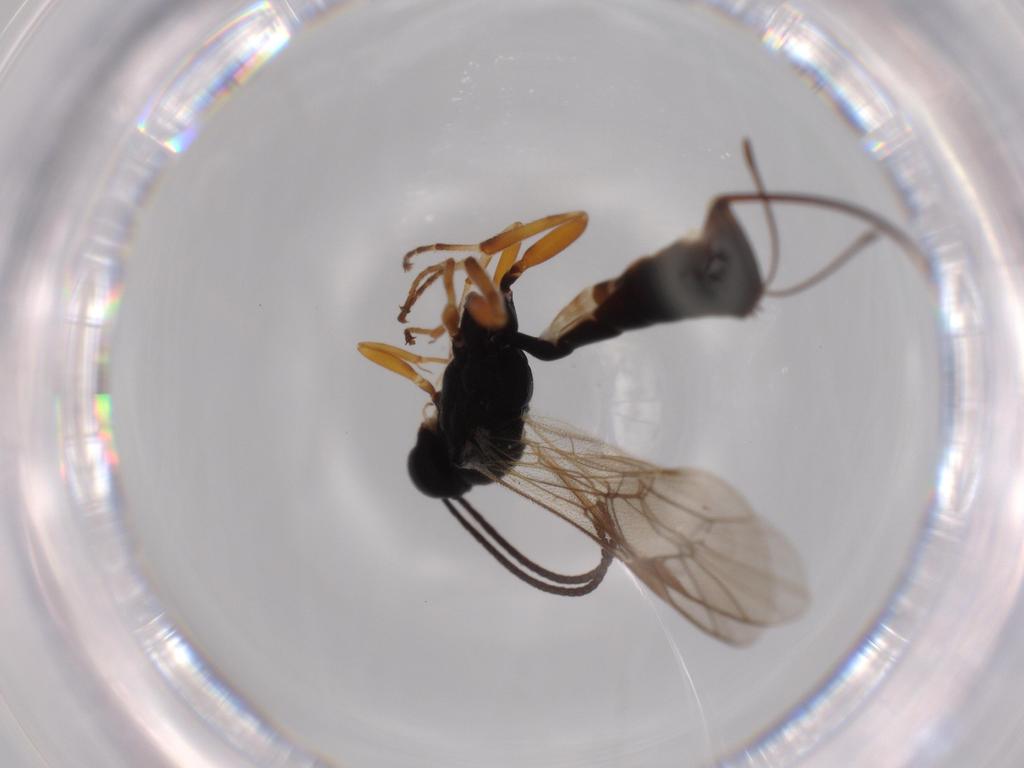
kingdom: Animalia
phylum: Arthropoda
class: Insecta
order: Hymenoptera
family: Ichneumonidae
